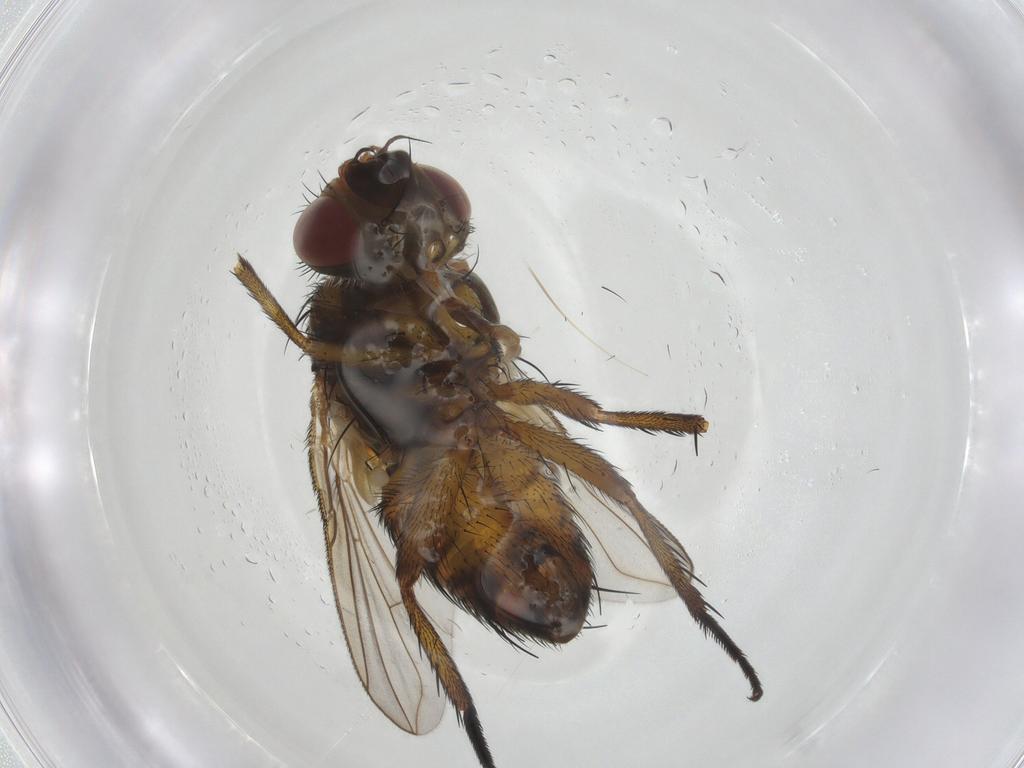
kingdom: Animalia
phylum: Arthropoda
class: Insecta
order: Diptera
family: Tachinidae
